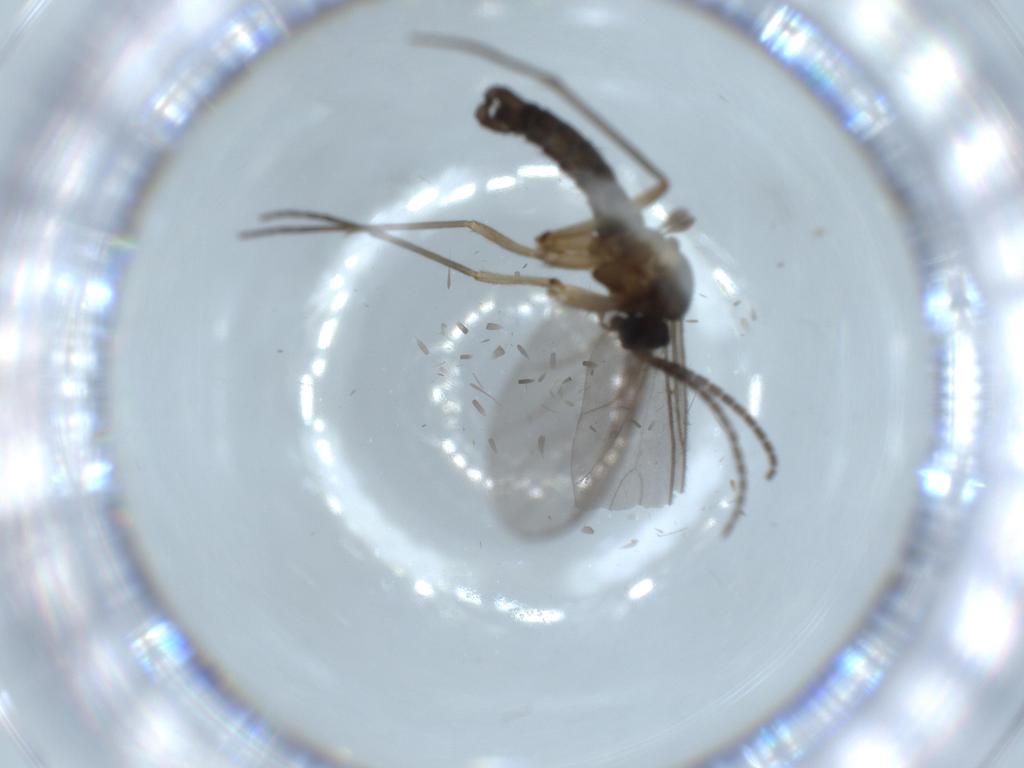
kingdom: Animalia
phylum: Arthropoda
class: Insecta
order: Diptera
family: Sciaridae
